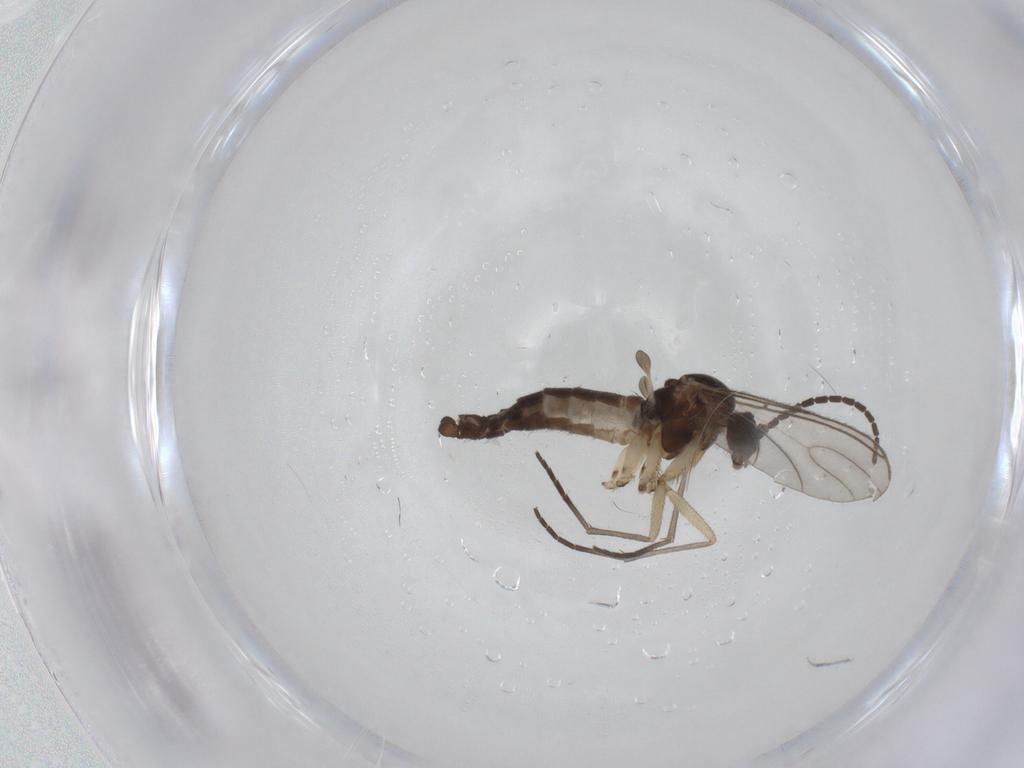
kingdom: Animalia
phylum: Arthropoda
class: Insecta
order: Diptera
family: Sciaridae
